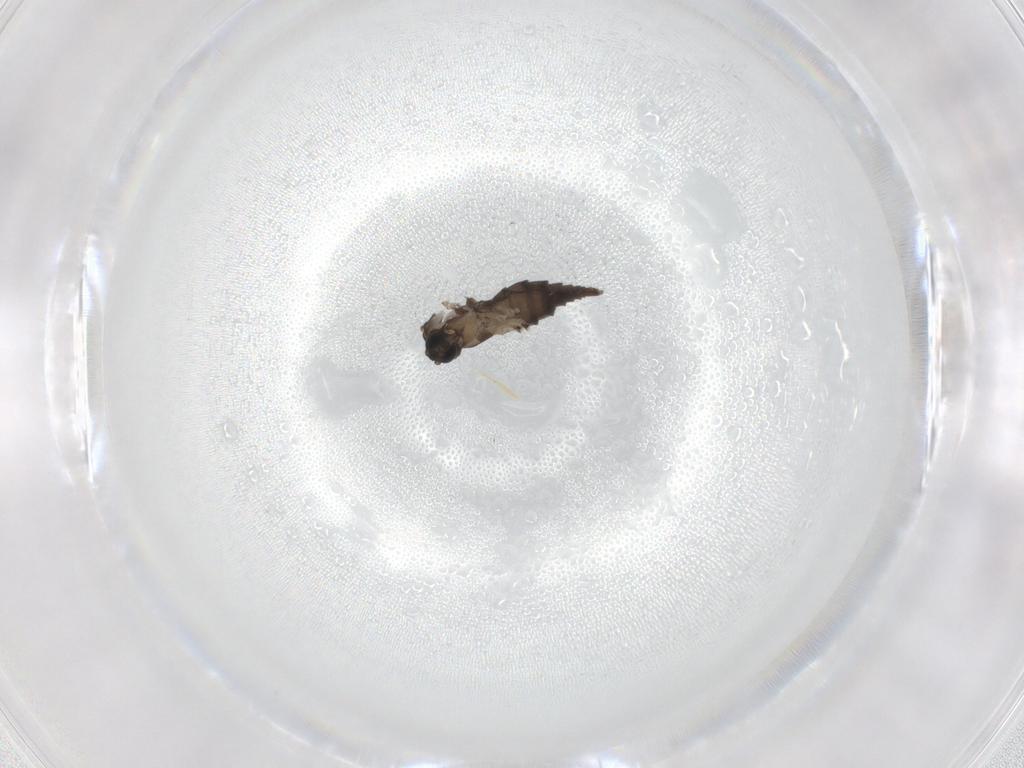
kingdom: Animalia
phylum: Arthropoda
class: Insecta
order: Diptera
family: Sciaridae
